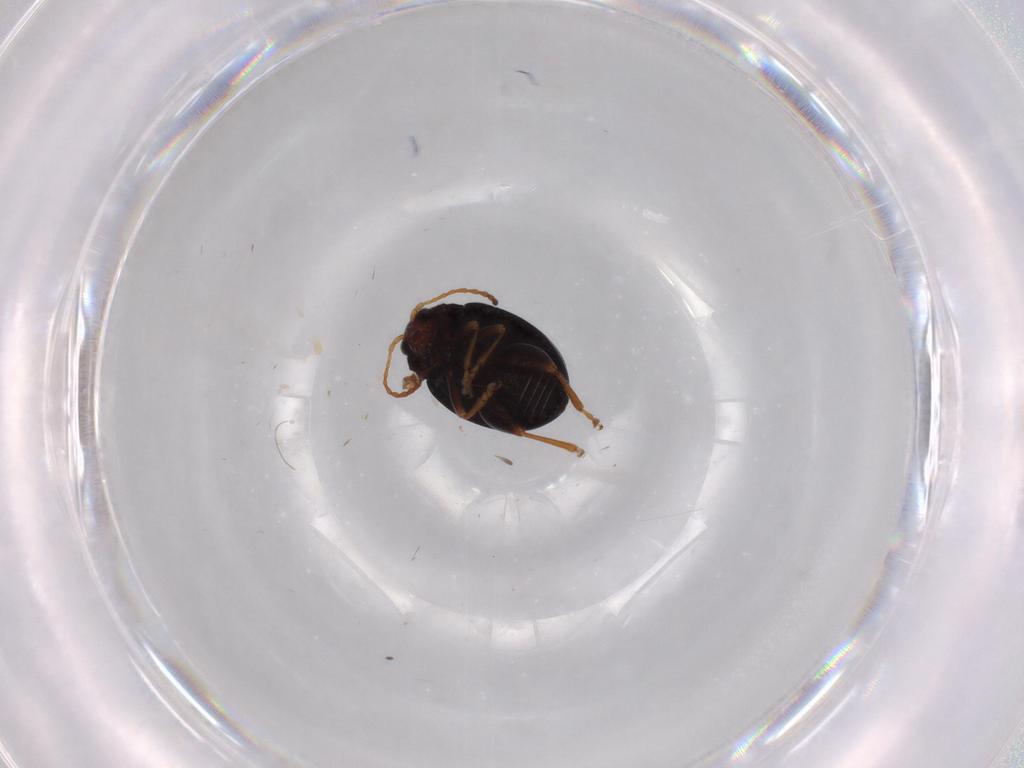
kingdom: Animalia
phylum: Arthropoda
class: Insecta
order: Coleoptera
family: Chrysomelidae
